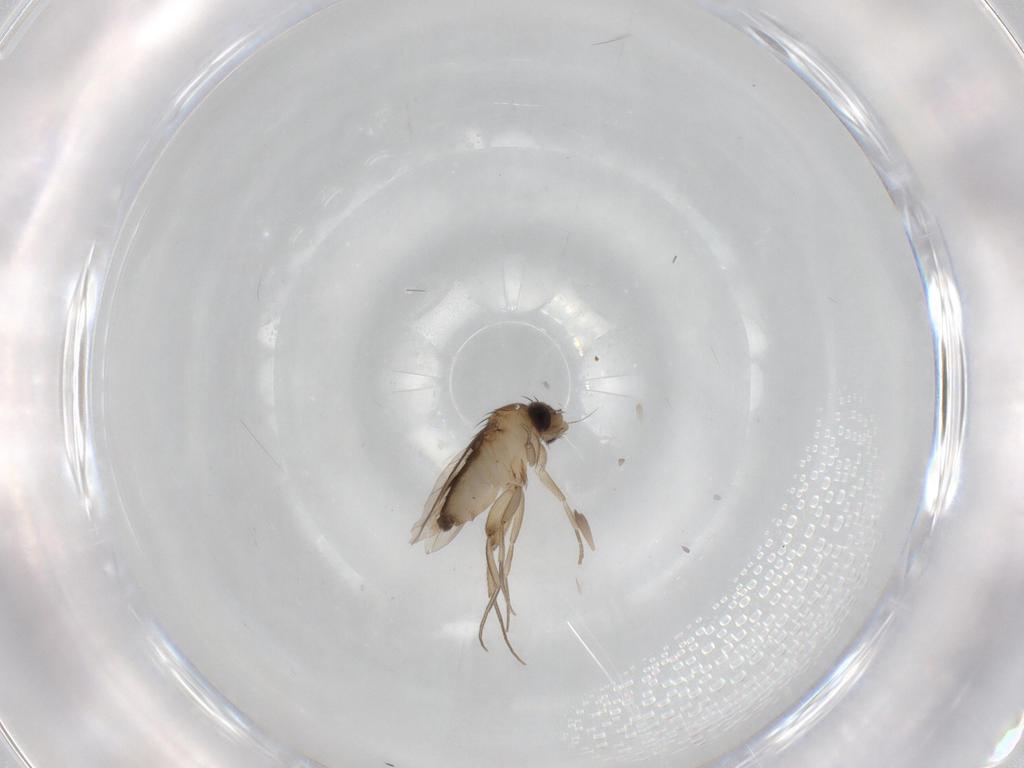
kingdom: Animalia
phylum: Arthropoda
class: Insecta
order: Diptera
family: Phoridae
